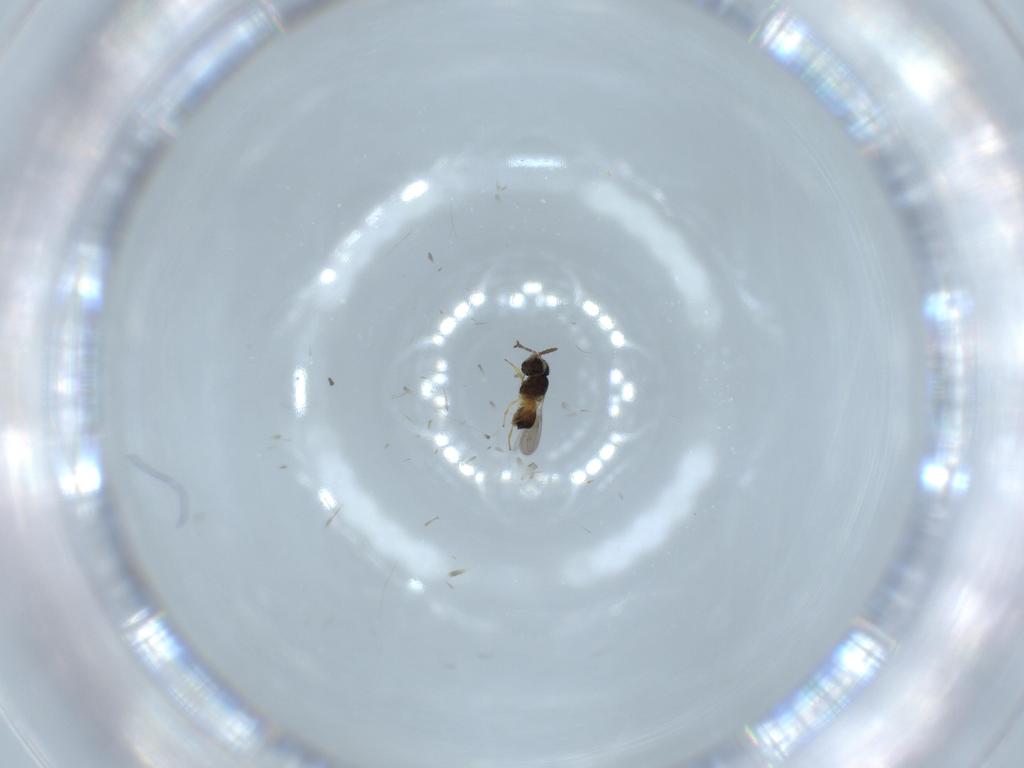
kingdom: Animalia
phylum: Arthropoda
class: Insecta
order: Hymenoptera
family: Scelionidae
